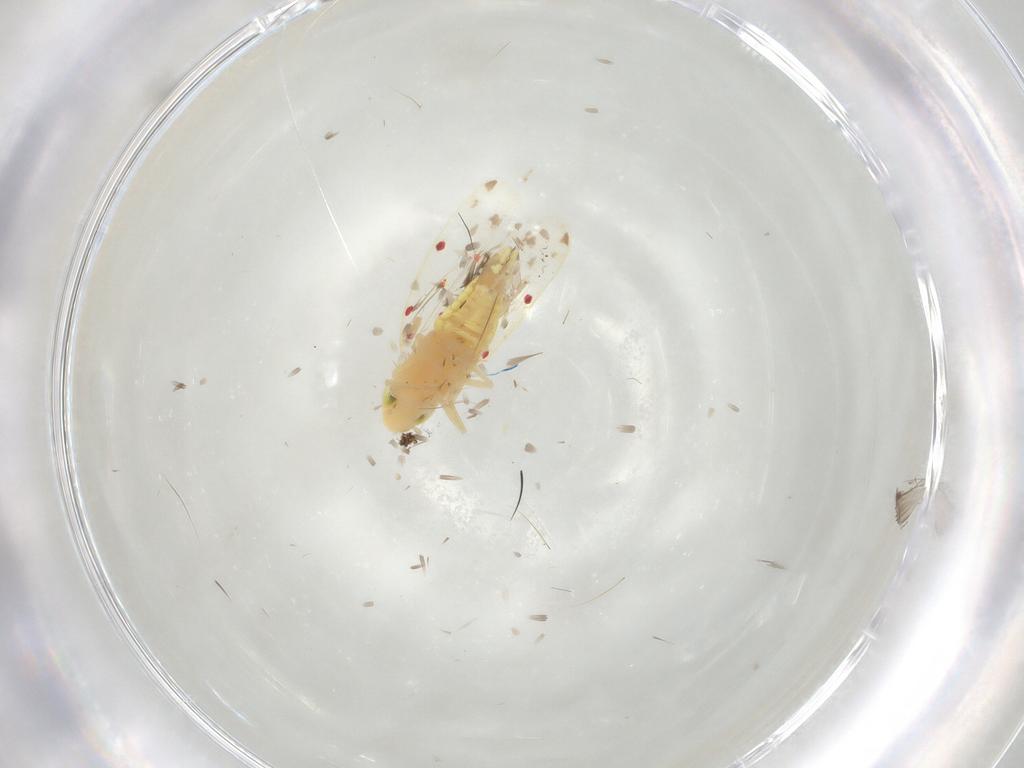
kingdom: Animalia
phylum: Arthropoda
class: Insecta
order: Hemiptera
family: Cicadellidae
